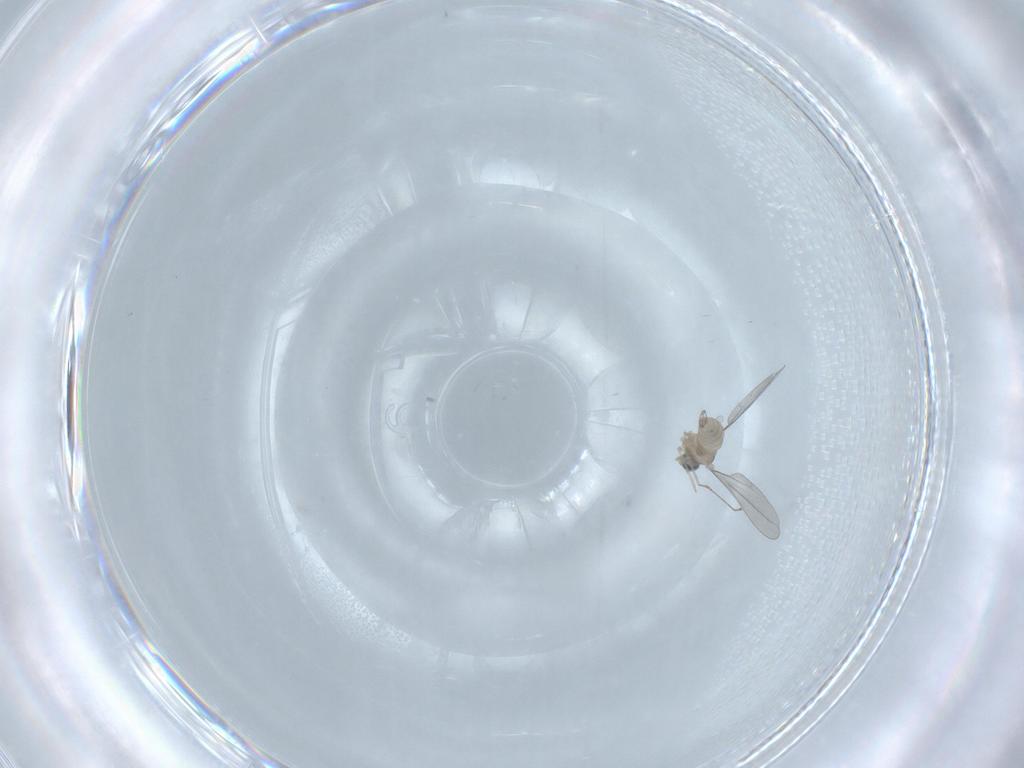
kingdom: Animalia
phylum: Arthropoda
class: Insecta
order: Diptera
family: Cecidomyiidae
